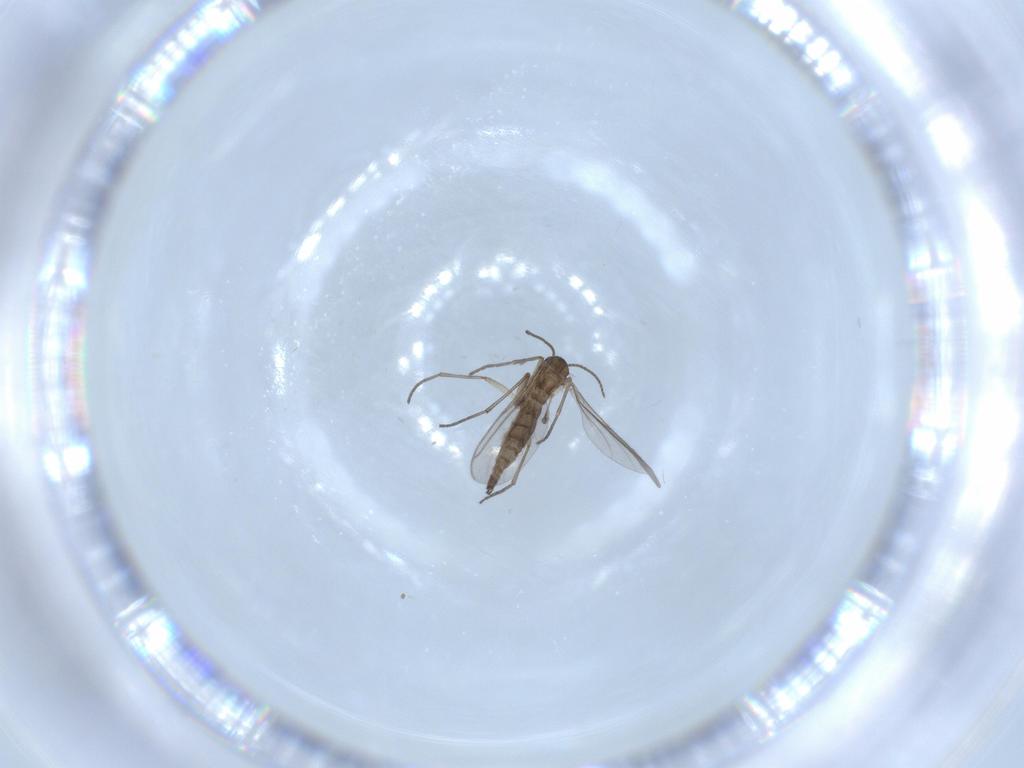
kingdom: Animalia
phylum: Arthropoda
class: Insecta
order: Diptera
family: Sciaridae
